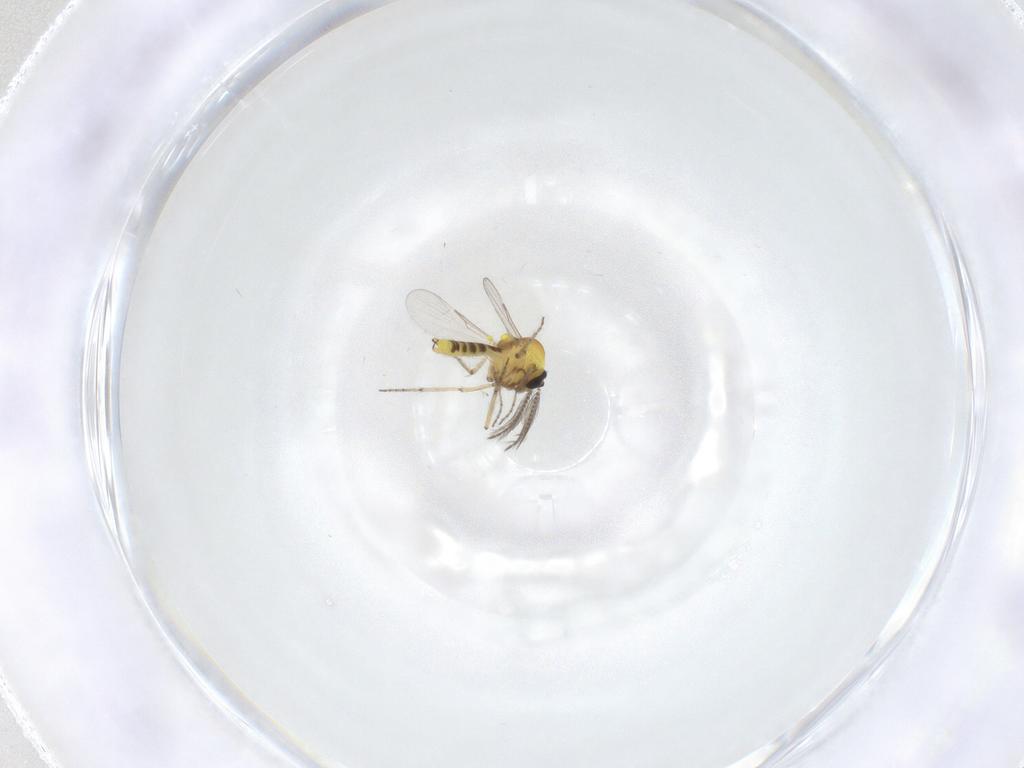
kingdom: Animalia
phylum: Arthropoda
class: Insecta
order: Diptera
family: Ceratopogonidae
